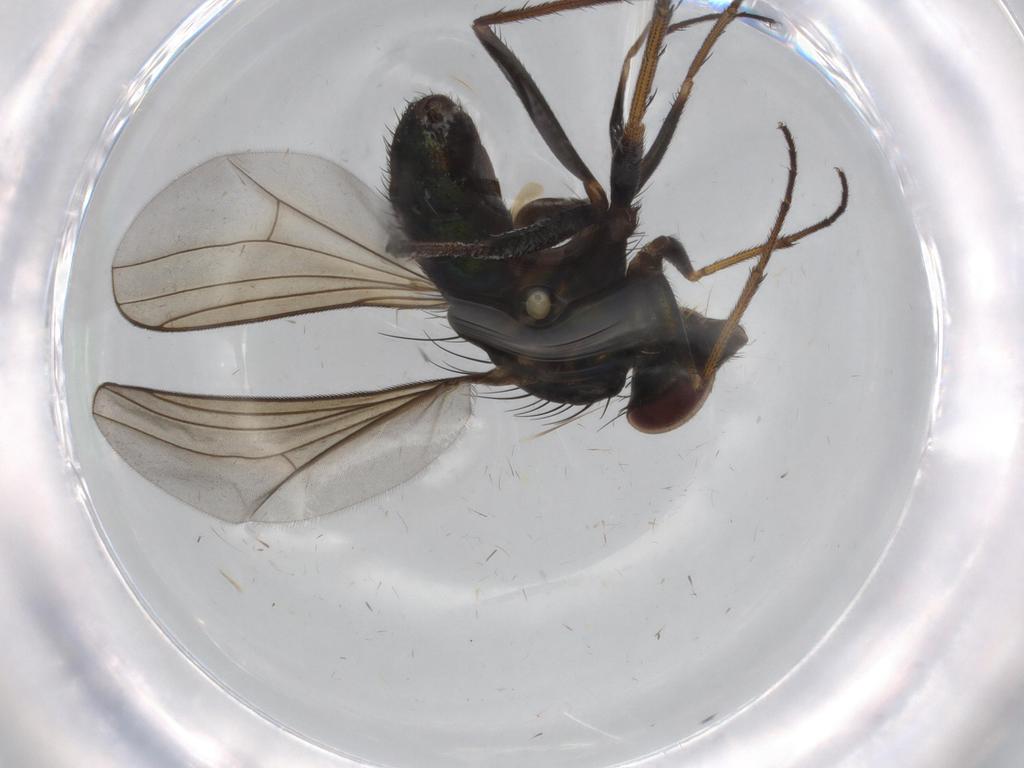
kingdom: Animalia
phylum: Arthropoda
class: Insecta
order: Diptera
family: Dolichopodidae
